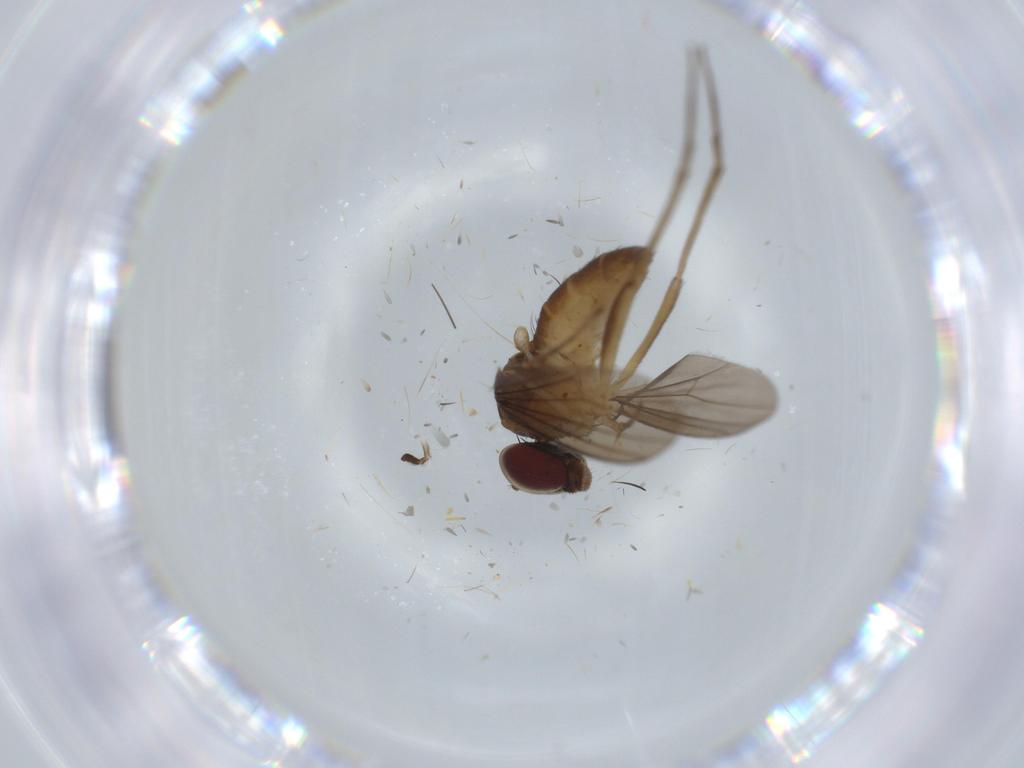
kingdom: Animalia
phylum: Arthropoda
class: Insecta
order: Diptera
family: Dolichopodidae
